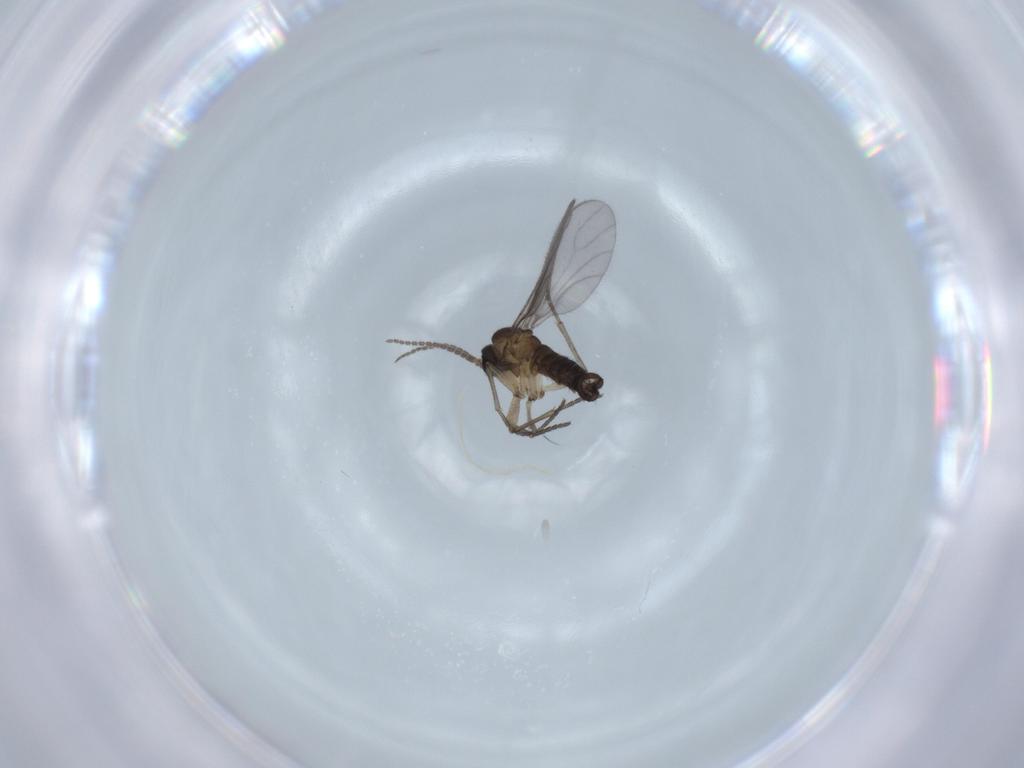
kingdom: Animalia
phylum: Arthropoda
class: Insecta
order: Diptera
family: Sciaridae
